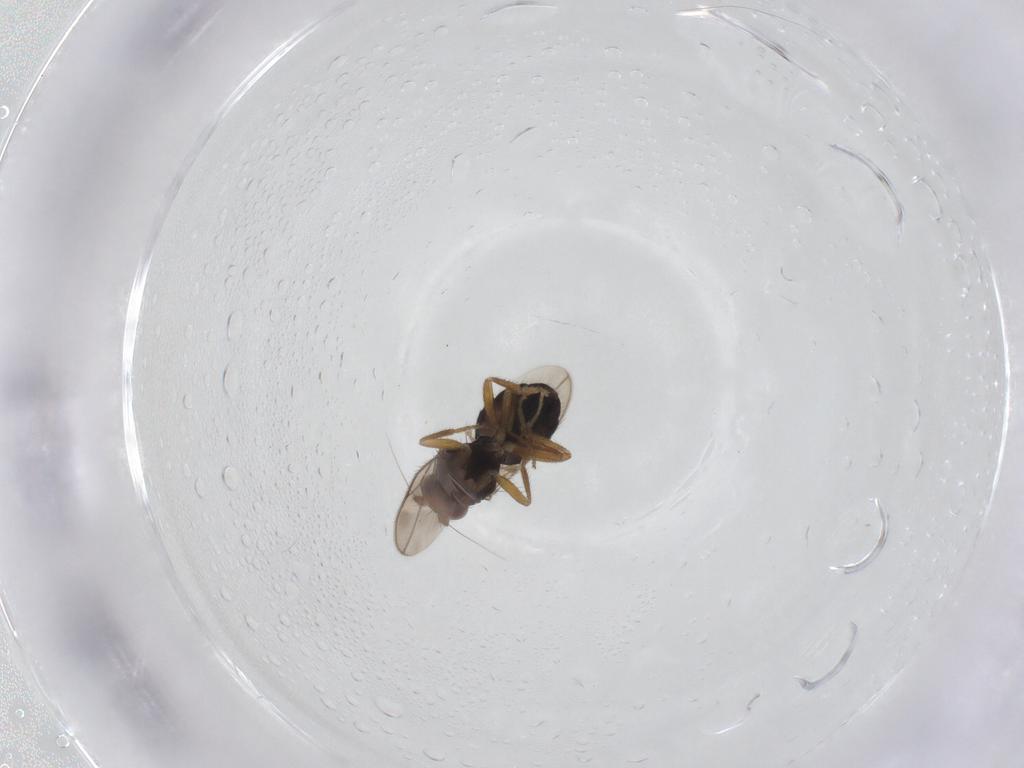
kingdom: Animalia
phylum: Arthropoda
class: Insecta
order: Diptera
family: Sphaeroceridae
